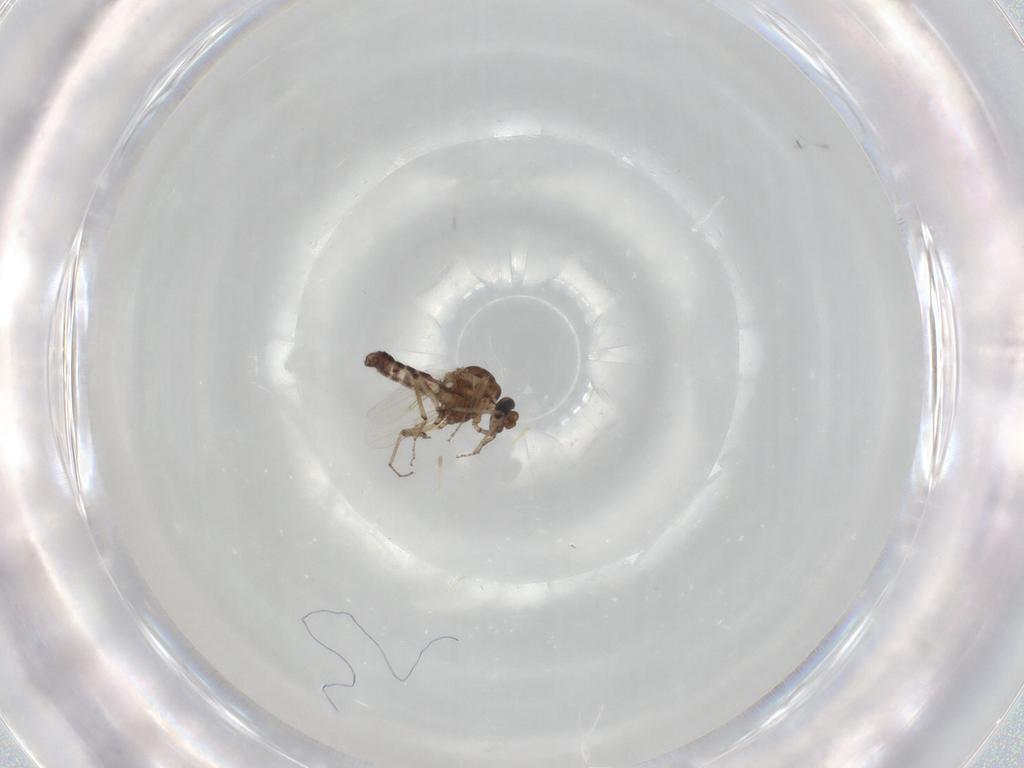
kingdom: Animalia
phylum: Arthropoda
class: Insecta
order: Diptera
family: Ceratopogonidae
